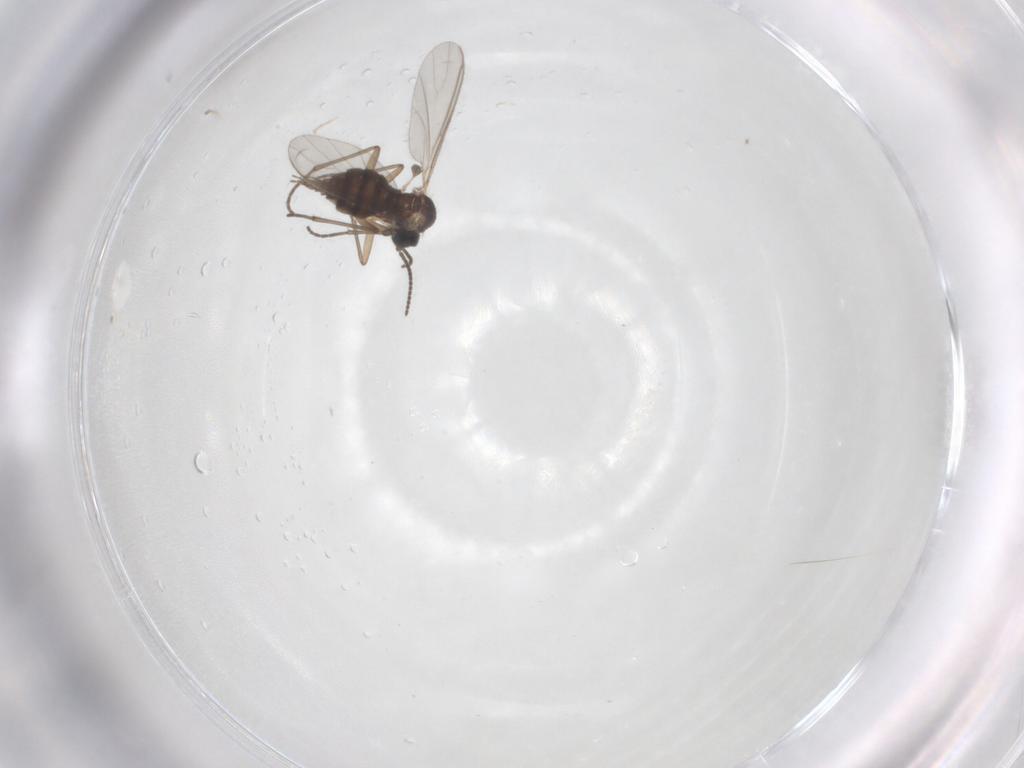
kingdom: Animalia
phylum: Arthropoda
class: Insecta
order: Diptera
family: Sciaridae
